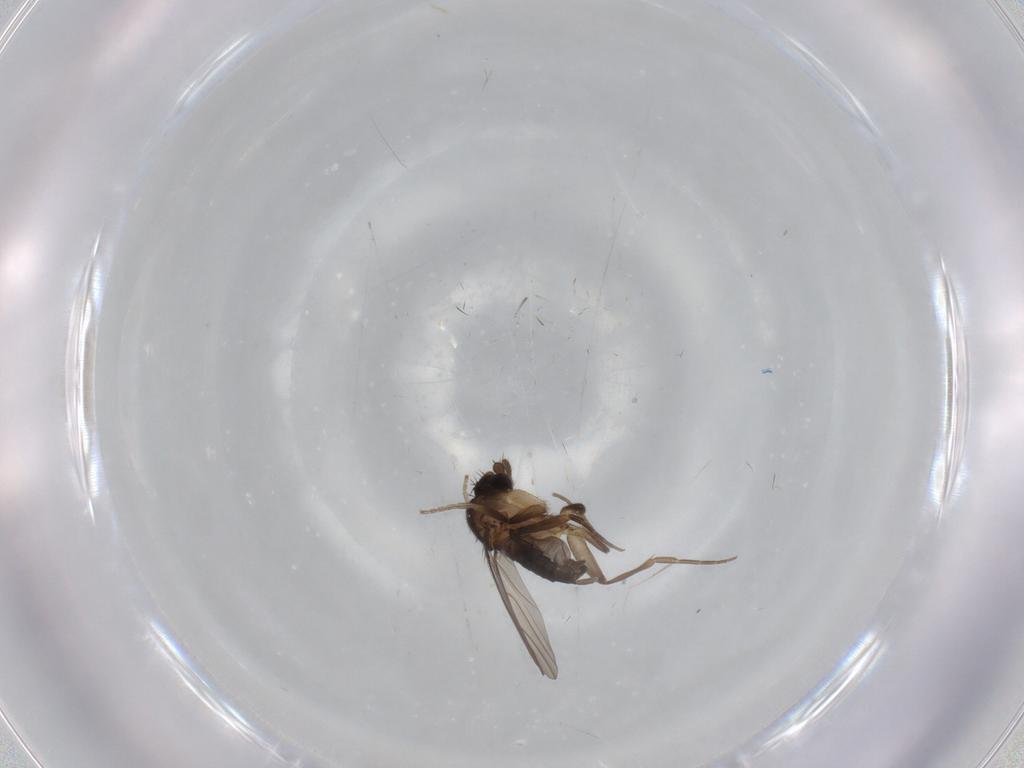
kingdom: Animalia
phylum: Arthropoda
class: Insecta
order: Diptera
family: Phoridae
